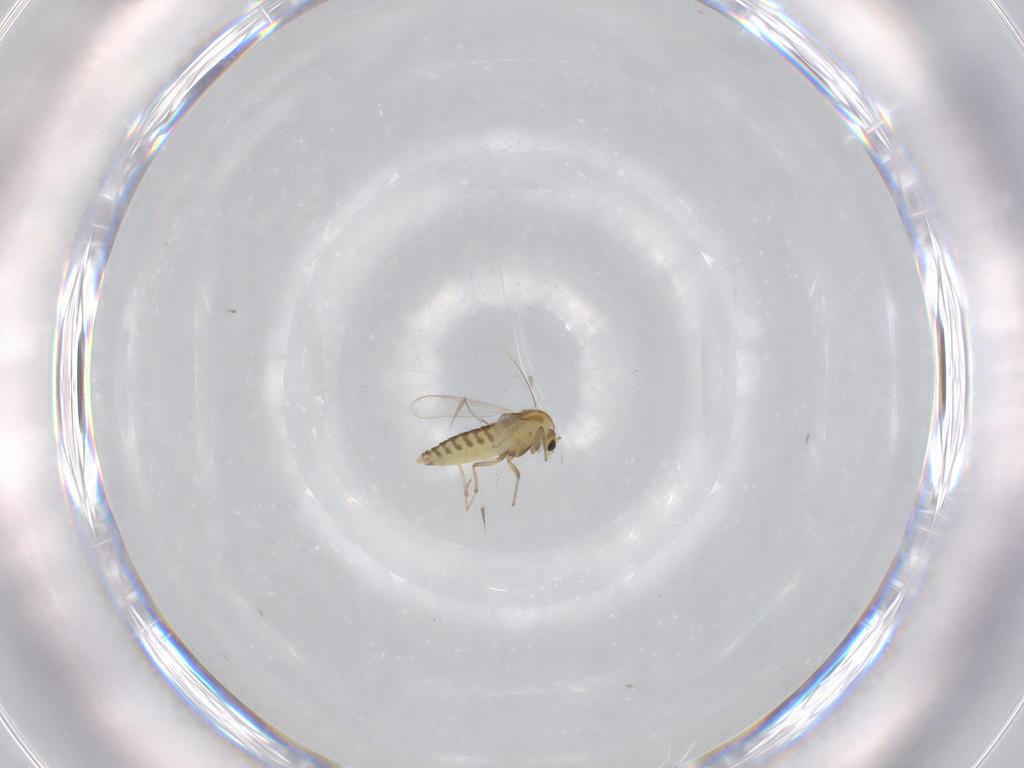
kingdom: Animalia
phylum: Arthropoda
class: Insecta
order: Diptera
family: Chironomidae
